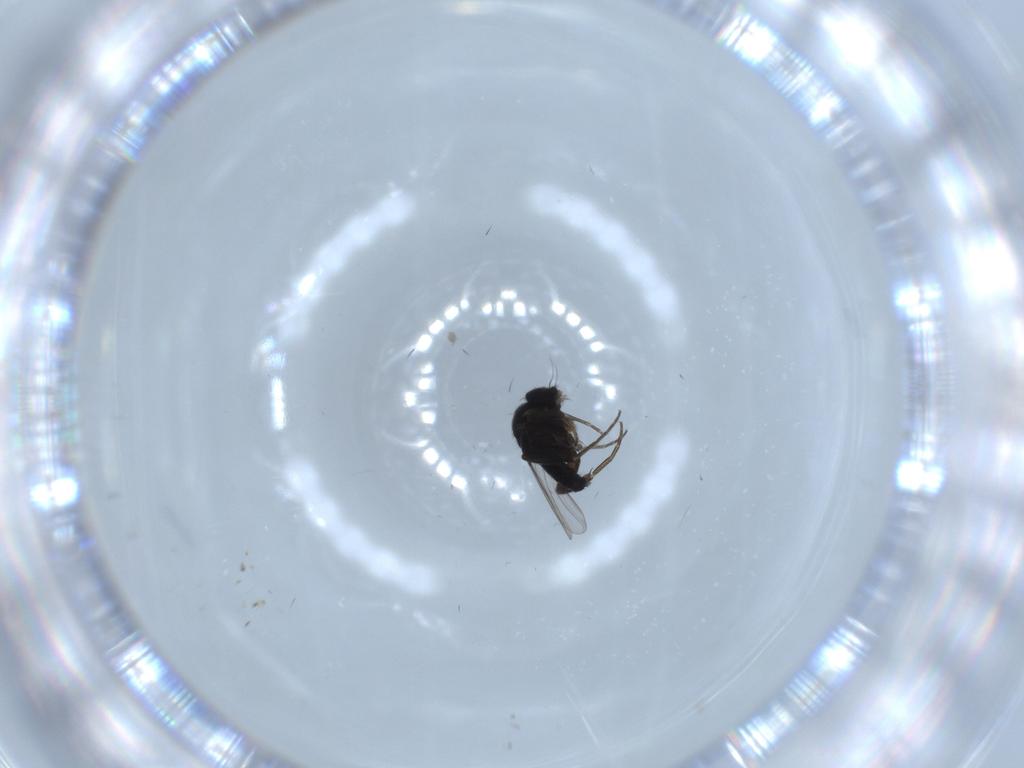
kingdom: Animalia
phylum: Arthropoda
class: Insecta
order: Diptera
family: Phoridae
